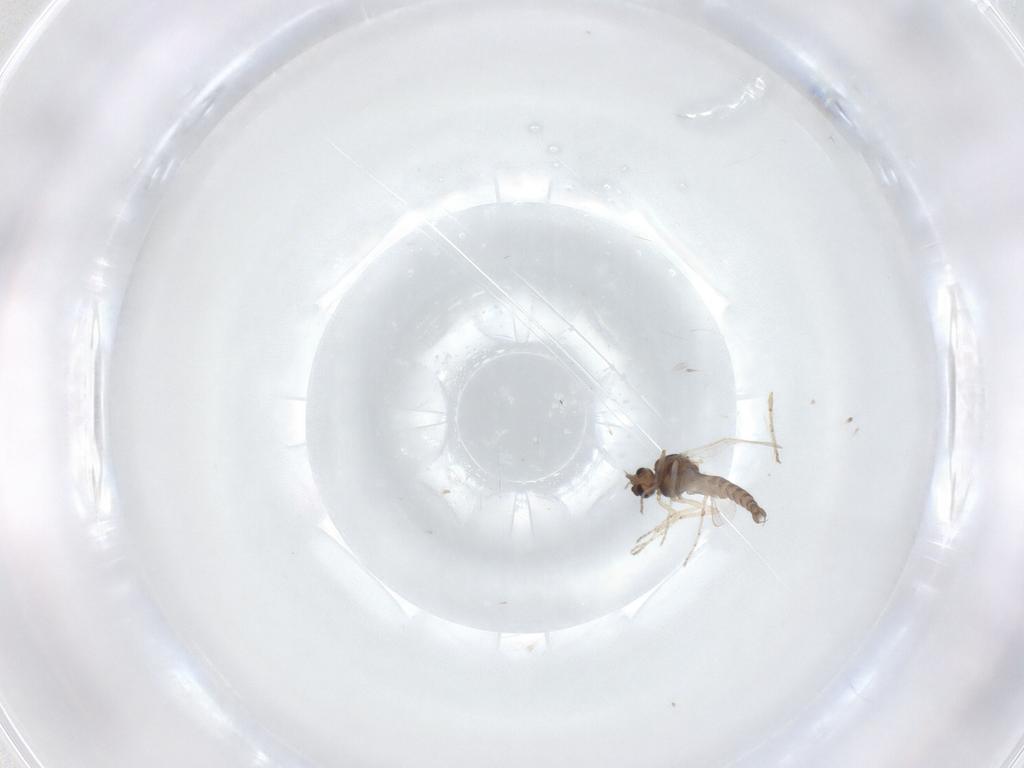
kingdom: Animalia
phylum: Arthropoda
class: Insecta
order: Diptera
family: Ceratopogonidae
